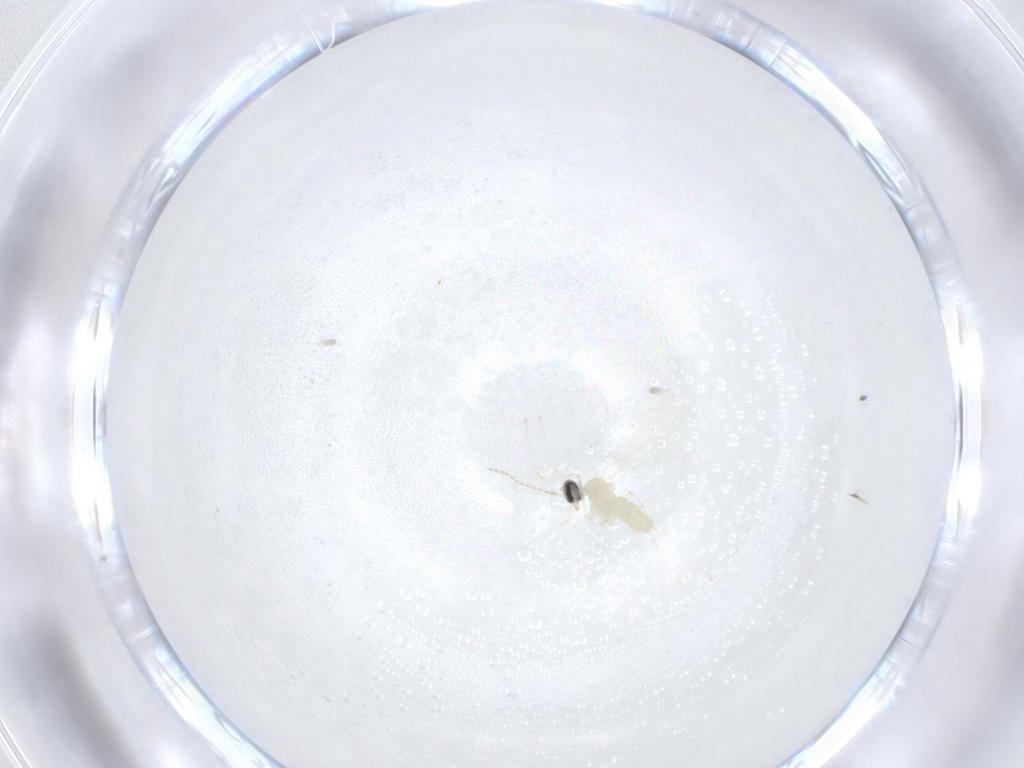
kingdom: Animalia
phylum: Arthropoda
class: Insecta
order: Diptera
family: Cecidomyiidae
